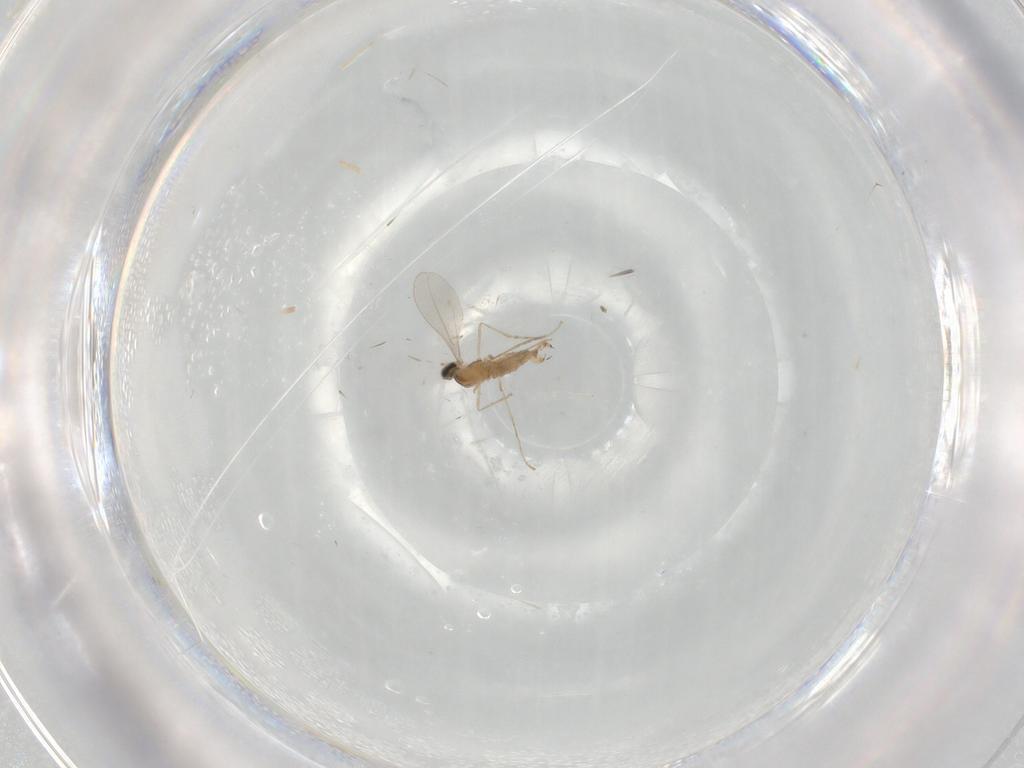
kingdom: Animalia
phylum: Arthropoda
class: Insecta
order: Diptera
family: Cecidomyiidae
